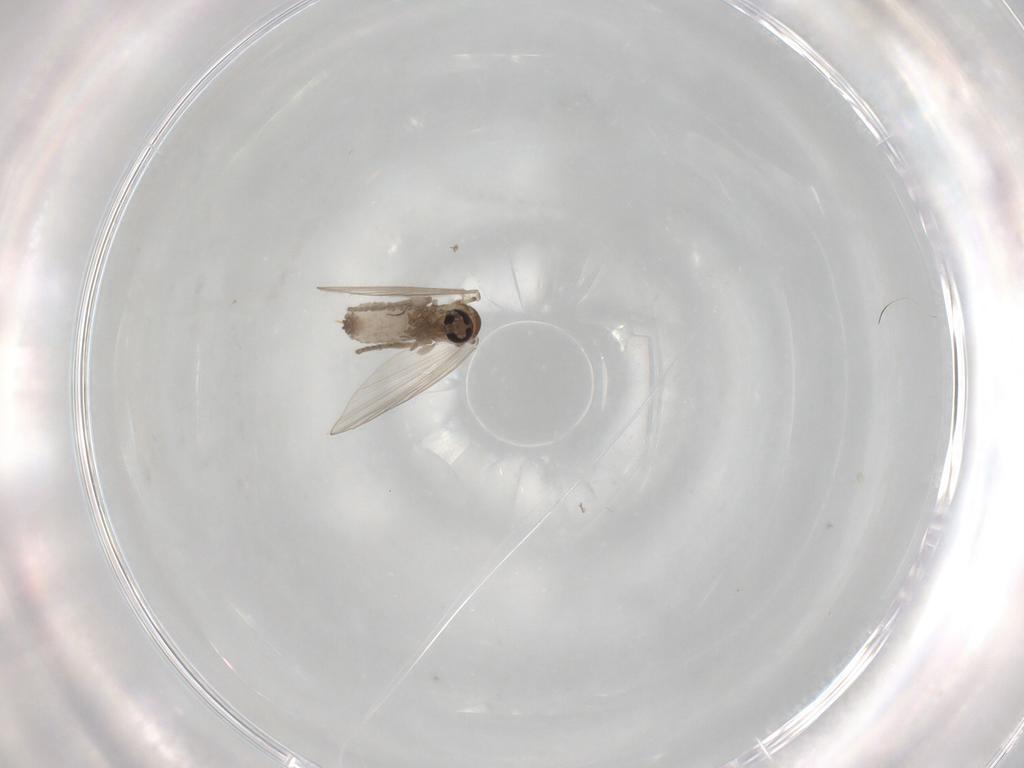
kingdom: Animalia
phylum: Arthropoda
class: Insecta
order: Diptera
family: Psychodidae
